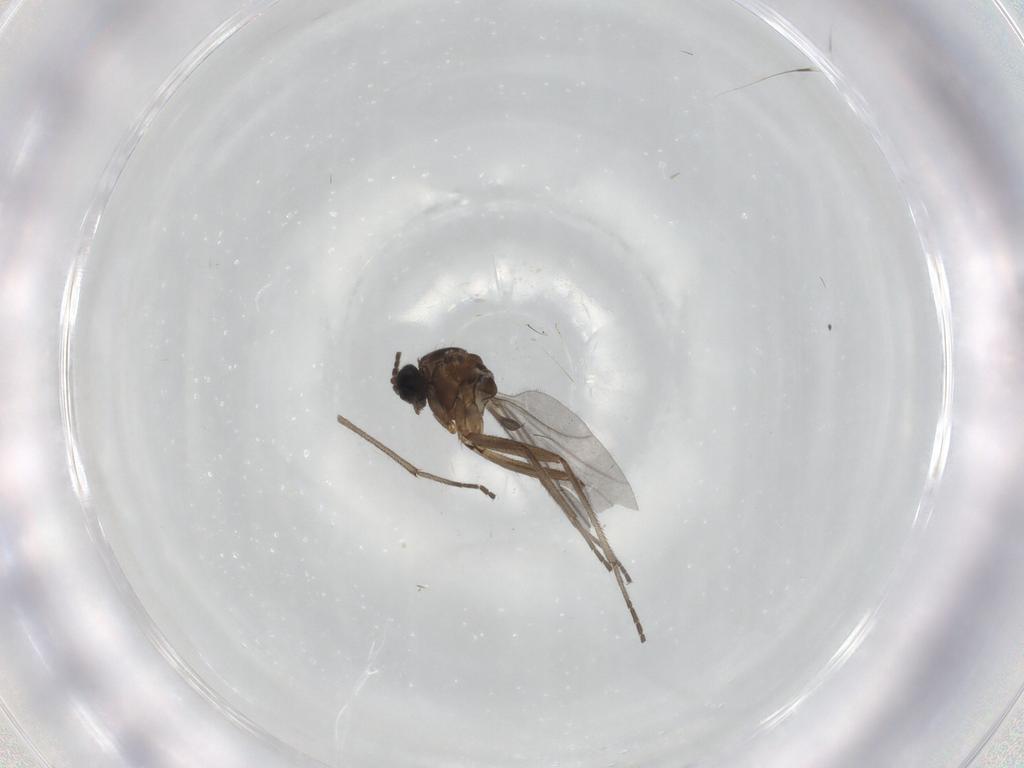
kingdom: Animalia
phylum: Arthropoda
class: Insecta
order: Diptera
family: Sciaridae
